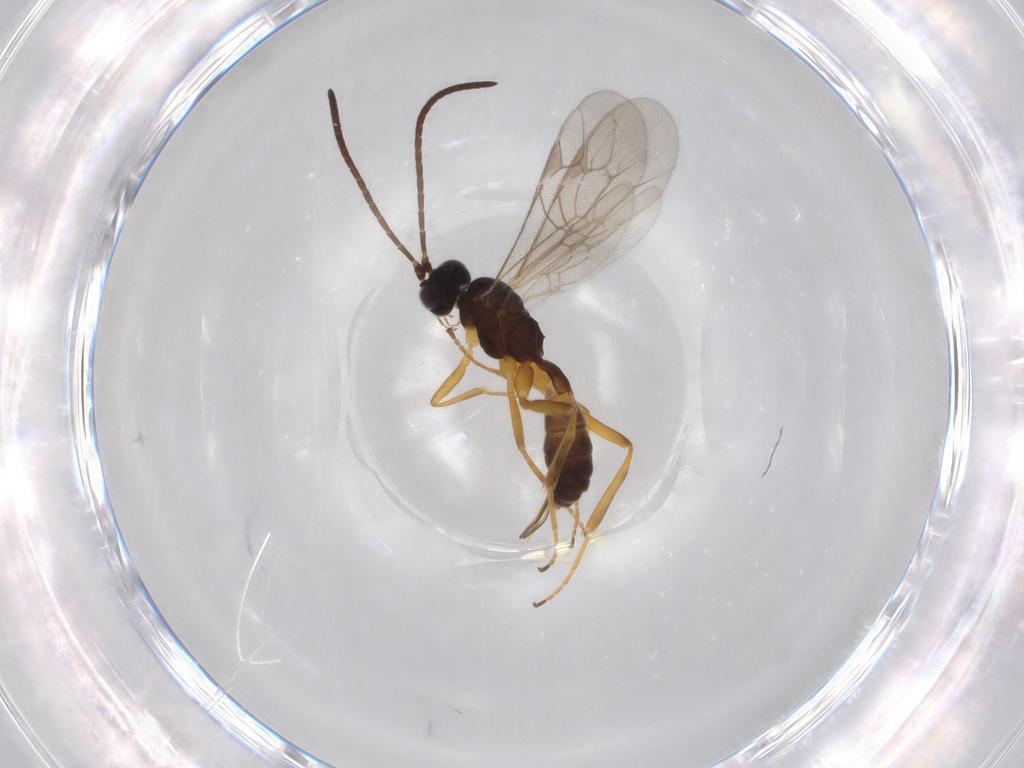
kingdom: Animalia
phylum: Arthropoda
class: Insecta
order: Hymenoptera
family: Ichneumonidae
